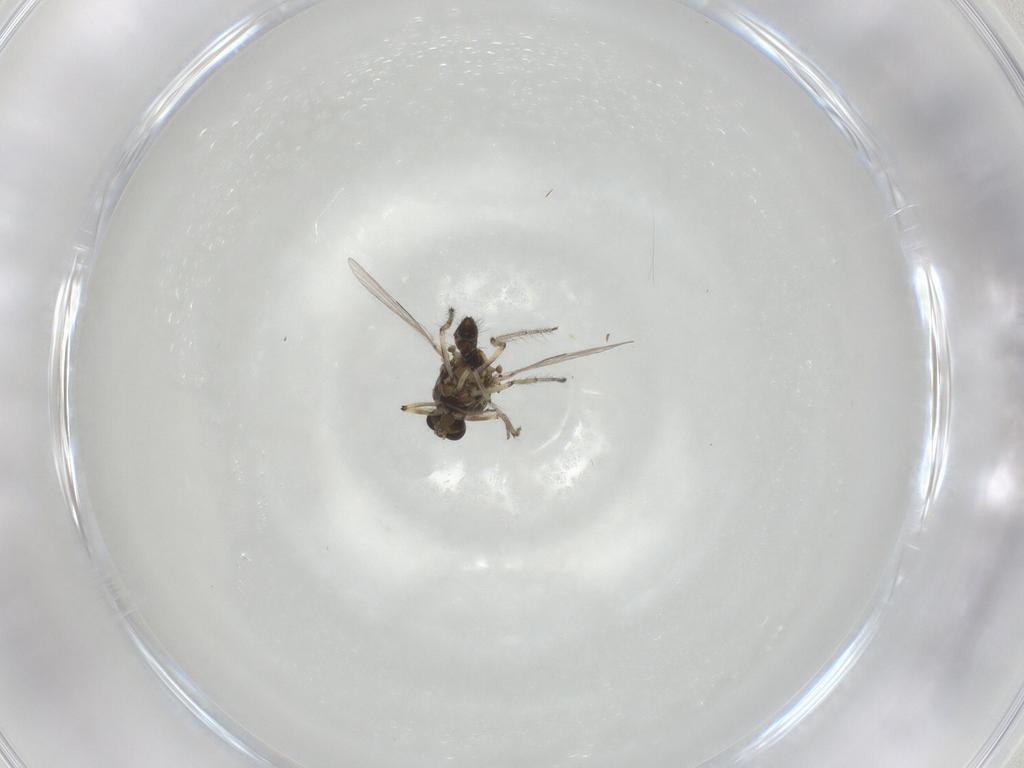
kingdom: Animalia
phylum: Arthropoda
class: Insecta
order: Diptera
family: Ceratopogonidae
